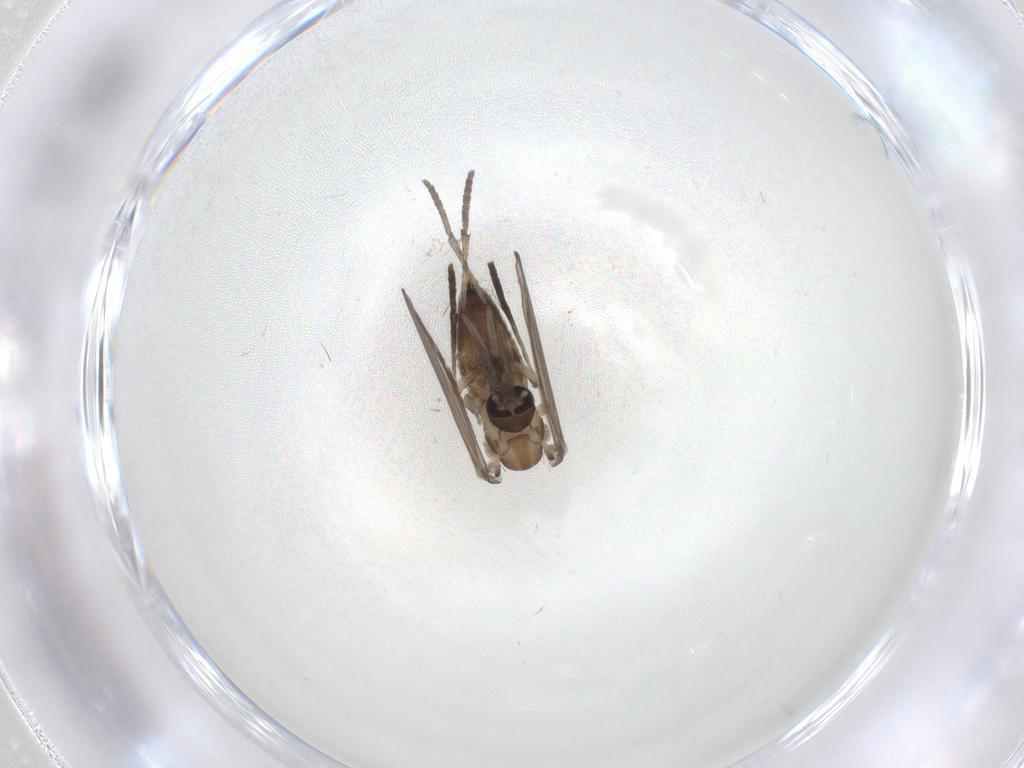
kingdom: Animalia
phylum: Arthropoda
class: Insecta
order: Diptera
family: Psychodidae
